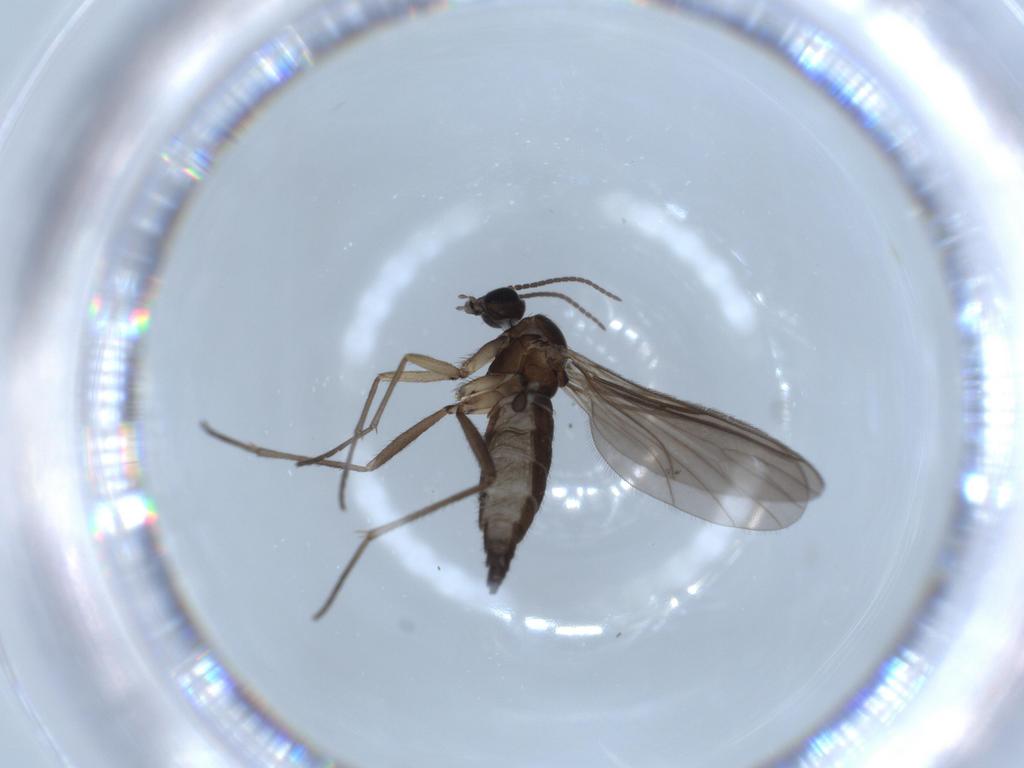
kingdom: Animalia
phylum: Arthropoda
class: Insecta
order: Diptera
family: Sciaridae
